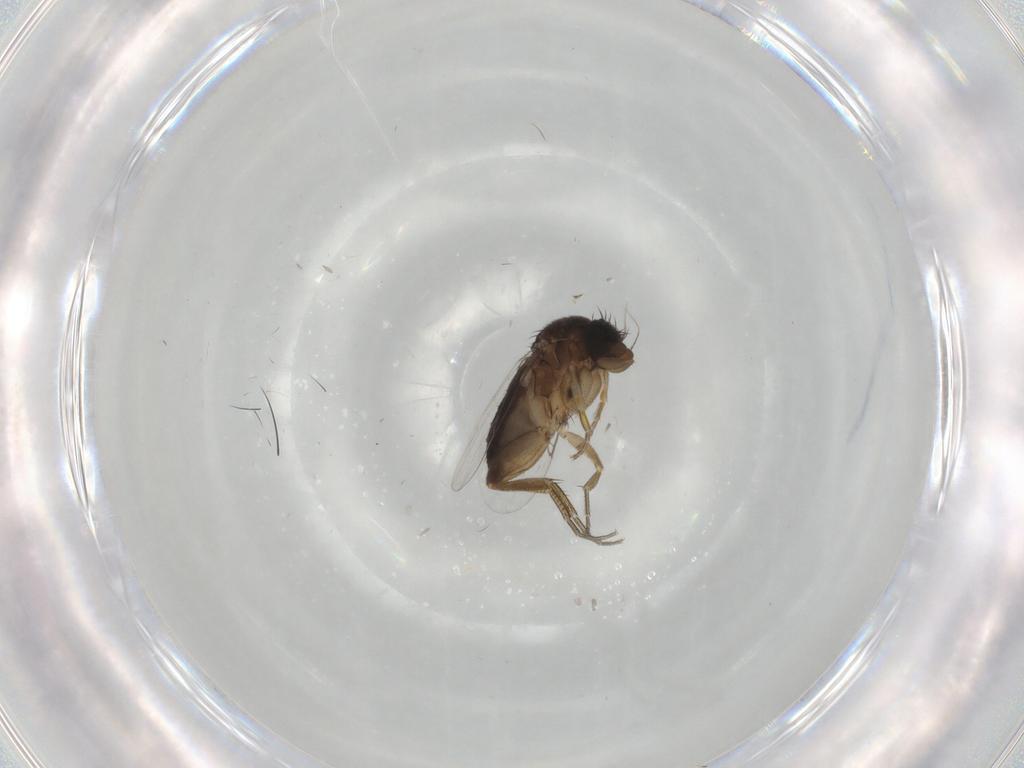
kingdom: Animalia
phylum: Arthropoda
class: Insecta
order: Diptera
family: Phoridae
